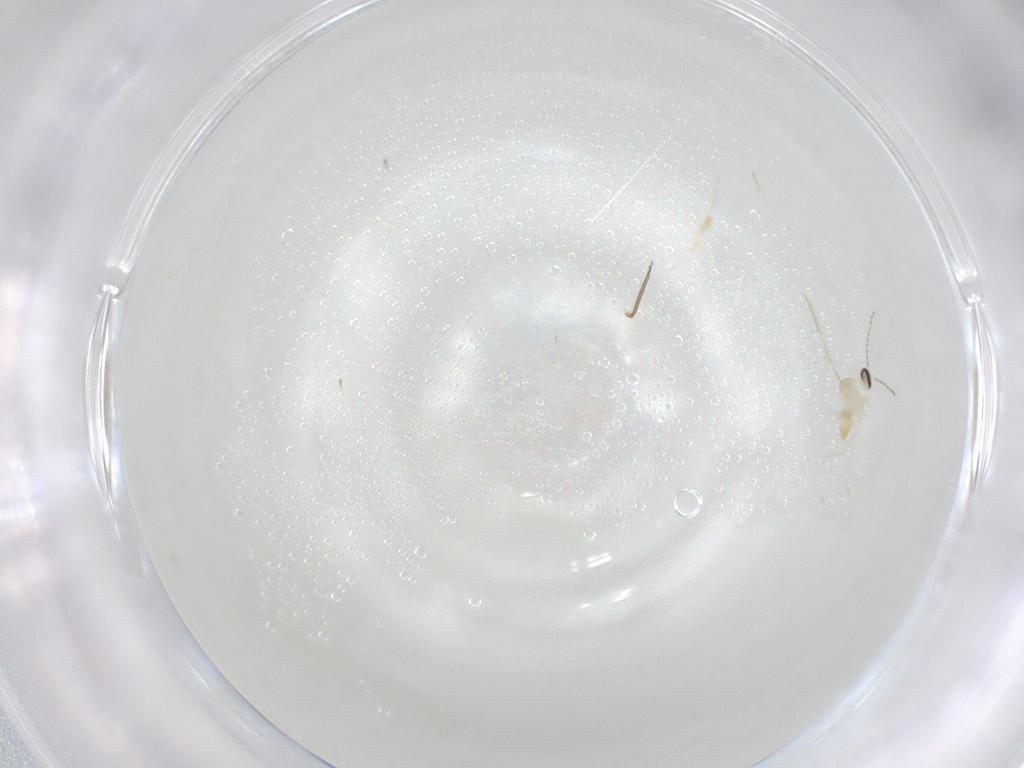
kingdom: Animalia
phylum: Arthropoda
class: Insecta
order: Diptera
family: Cecidomyiidae
